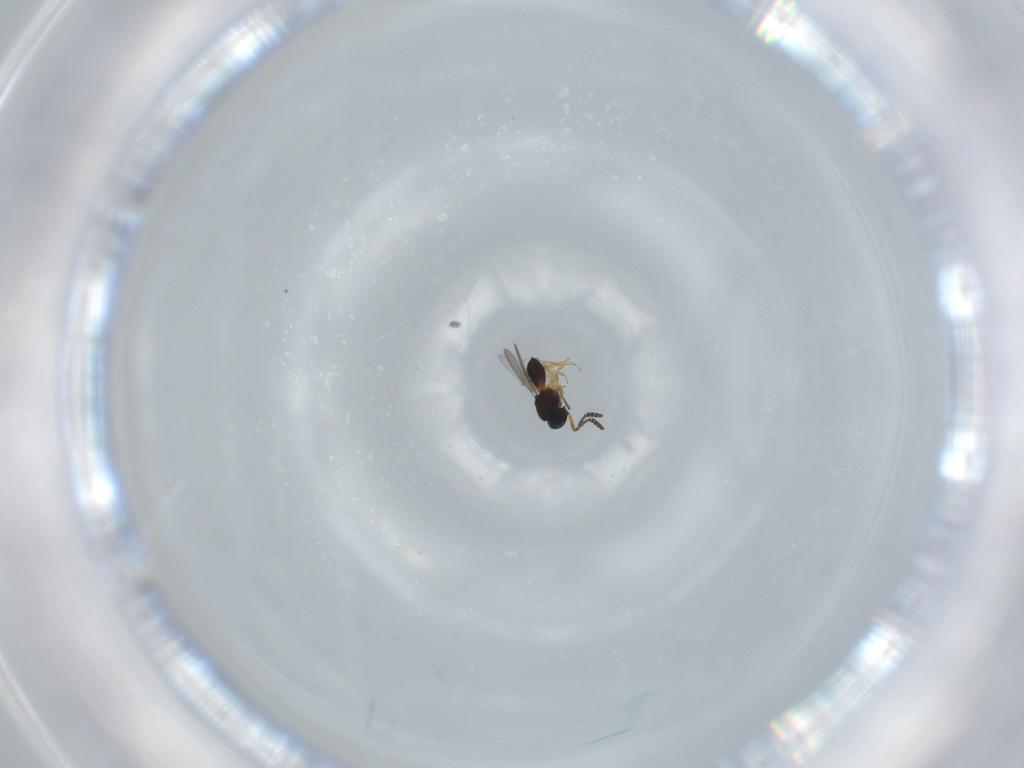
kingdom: Animalia
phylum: Arthropoda
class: Insecta
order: Hymenoptera
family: Scelionidae
